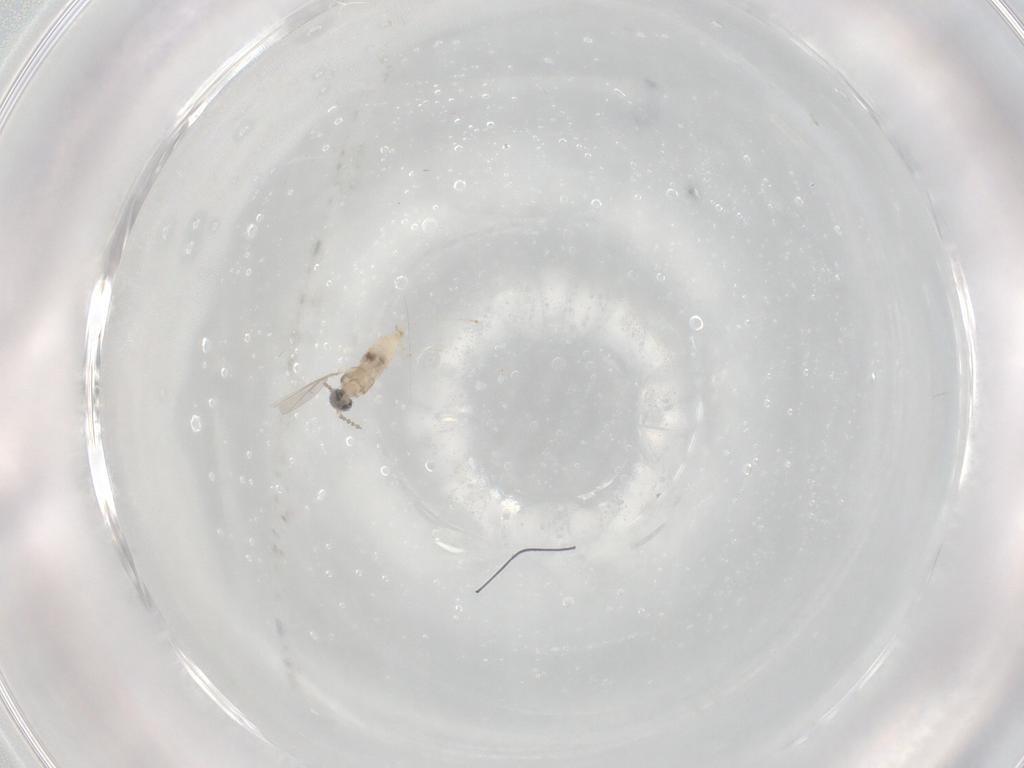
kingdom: Animalia
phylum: Arthropoda
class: Insecta
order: Diptera
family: Cecidomyiidae
